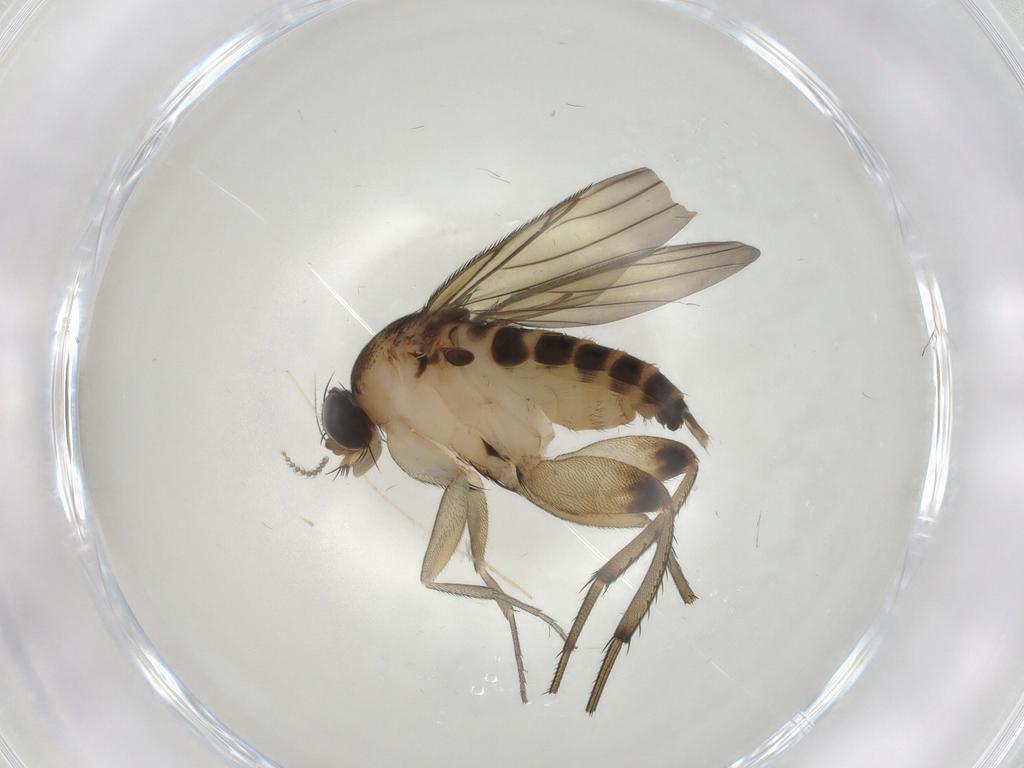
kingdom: Animalia
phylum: Arthropoda
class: Insecta
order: Diptera
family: Phoridae
